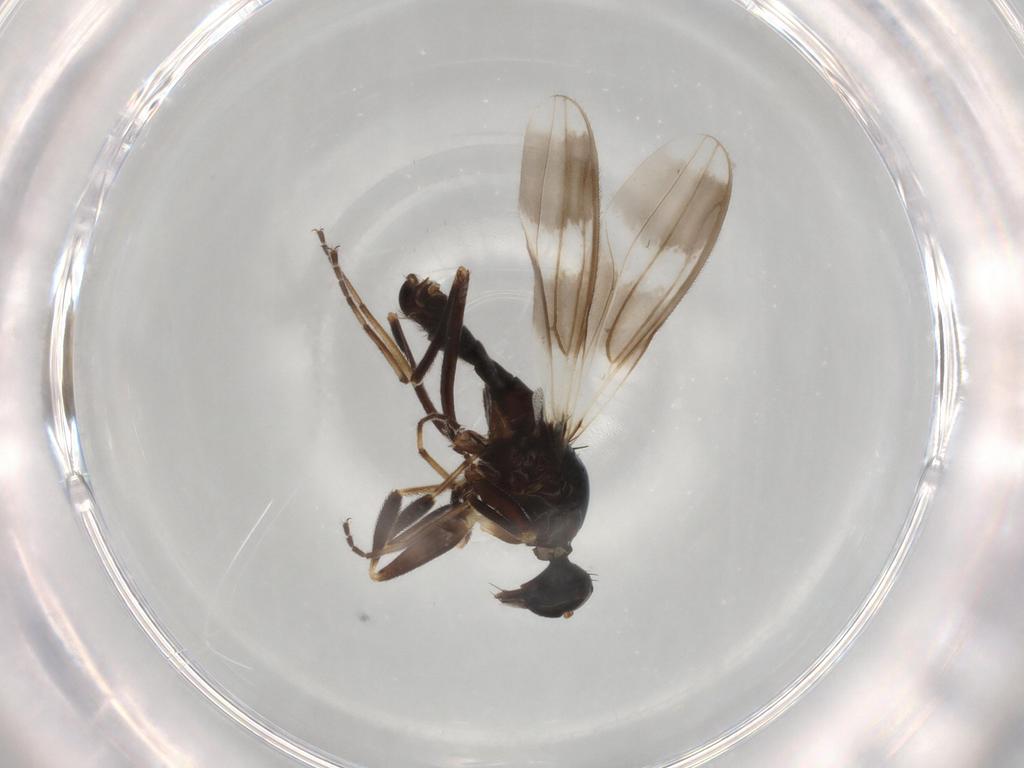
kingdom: Animalia
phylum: Arthropoda
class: Insecta
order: Diptera
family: Hybotidae
